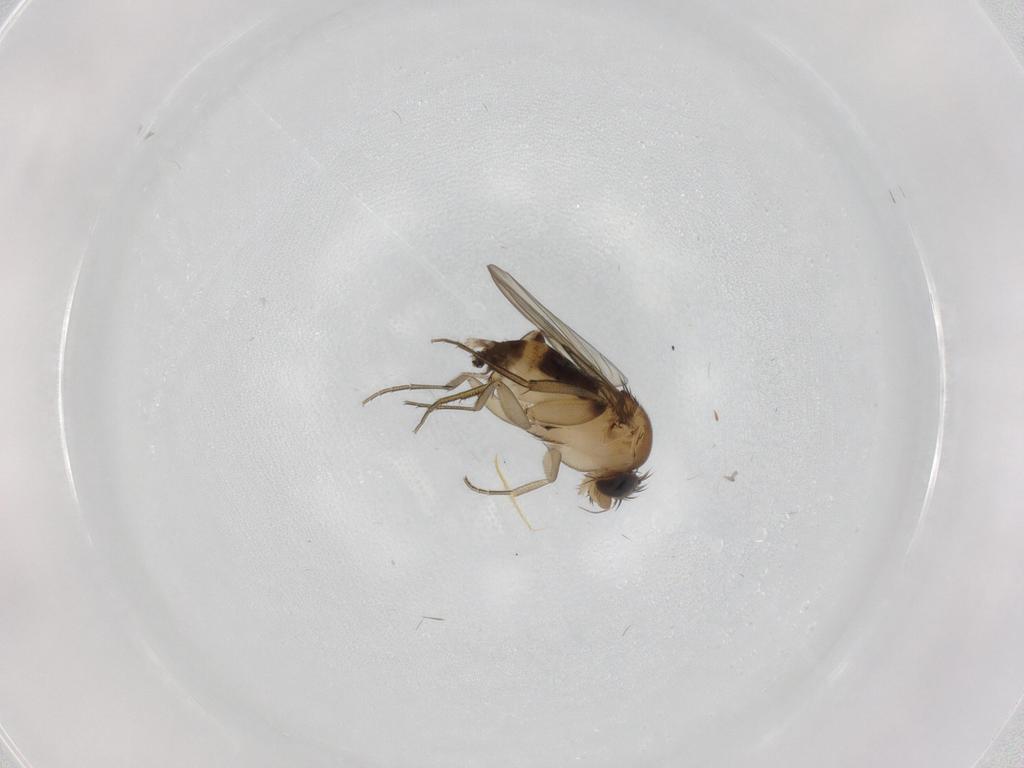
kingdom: Animalia
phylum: Arthropoda
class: Insecta
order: Diptera
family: Phoridae
